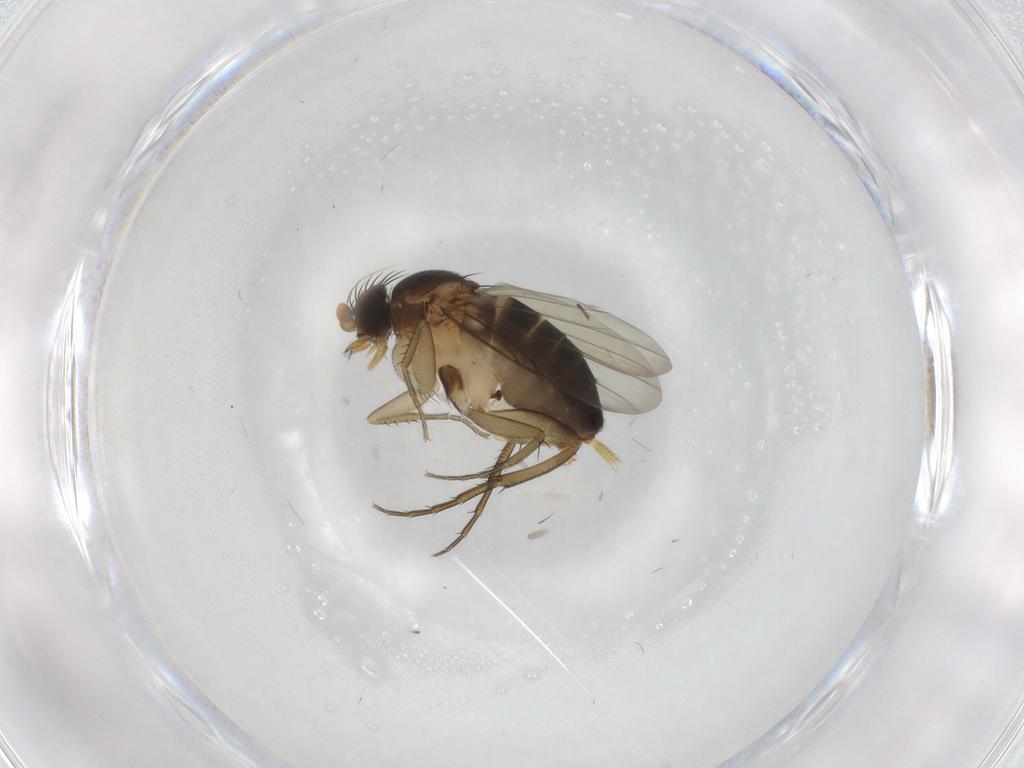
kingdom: Animalia
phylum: Arthropoda
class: Insecta
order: Diptera
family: Phoridae
